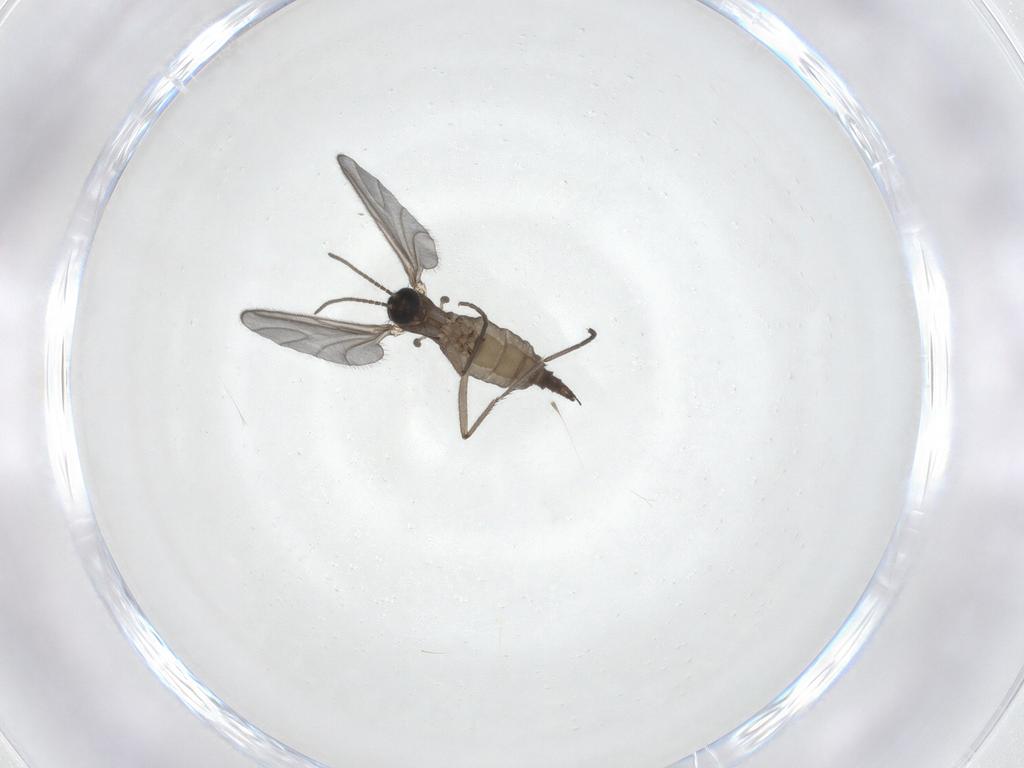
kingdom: Animalia
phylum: Arthropoda
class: Insecta
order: Diptera
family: Sciaridae
